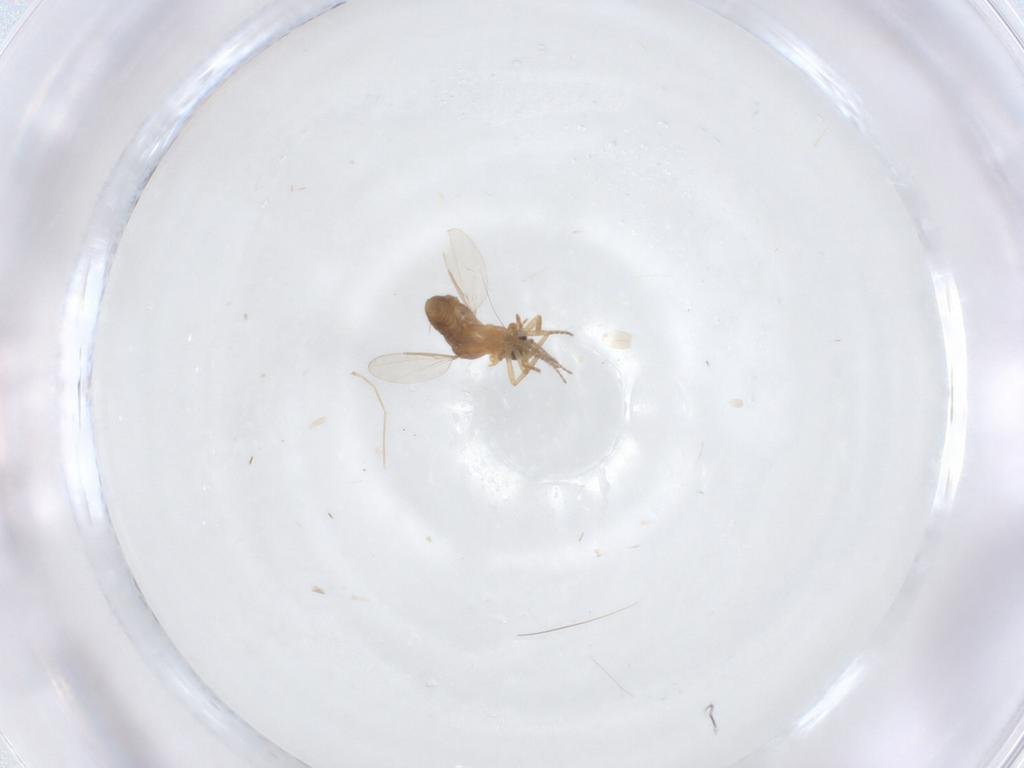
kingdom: Animalia
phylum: Arthropoda
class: Insecta
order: Diptera
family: Ceratopogonidae
